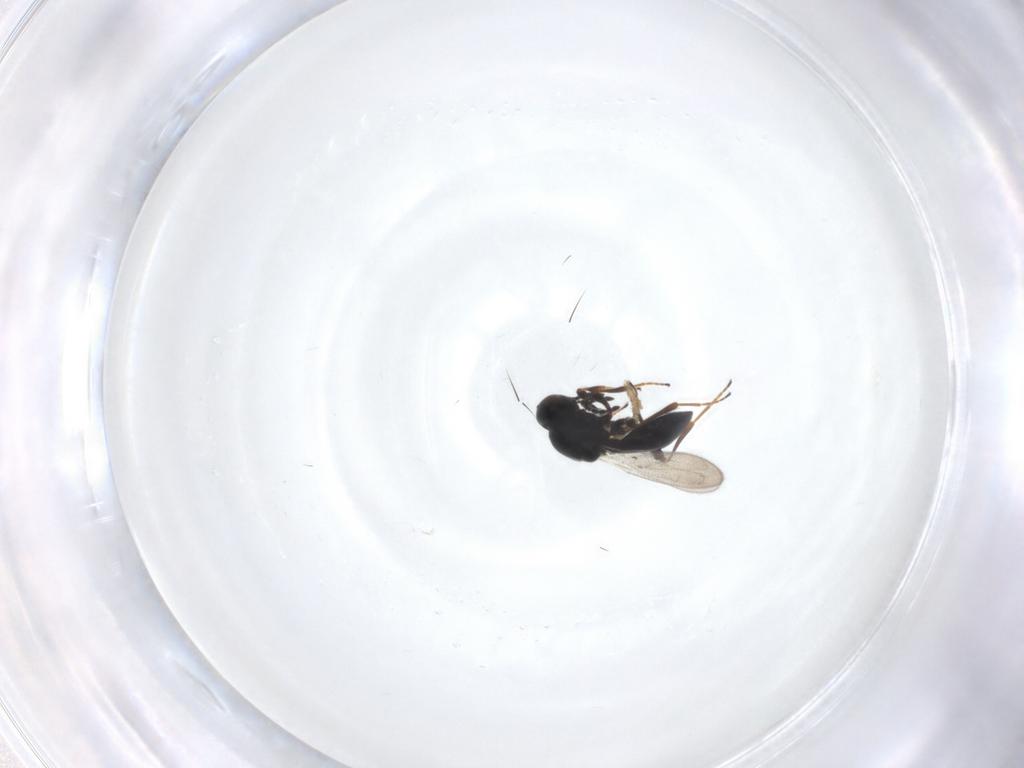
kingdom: Animalia
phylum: Arthropoda
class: Insecta
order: Hymenoptera
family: Platygastridae
